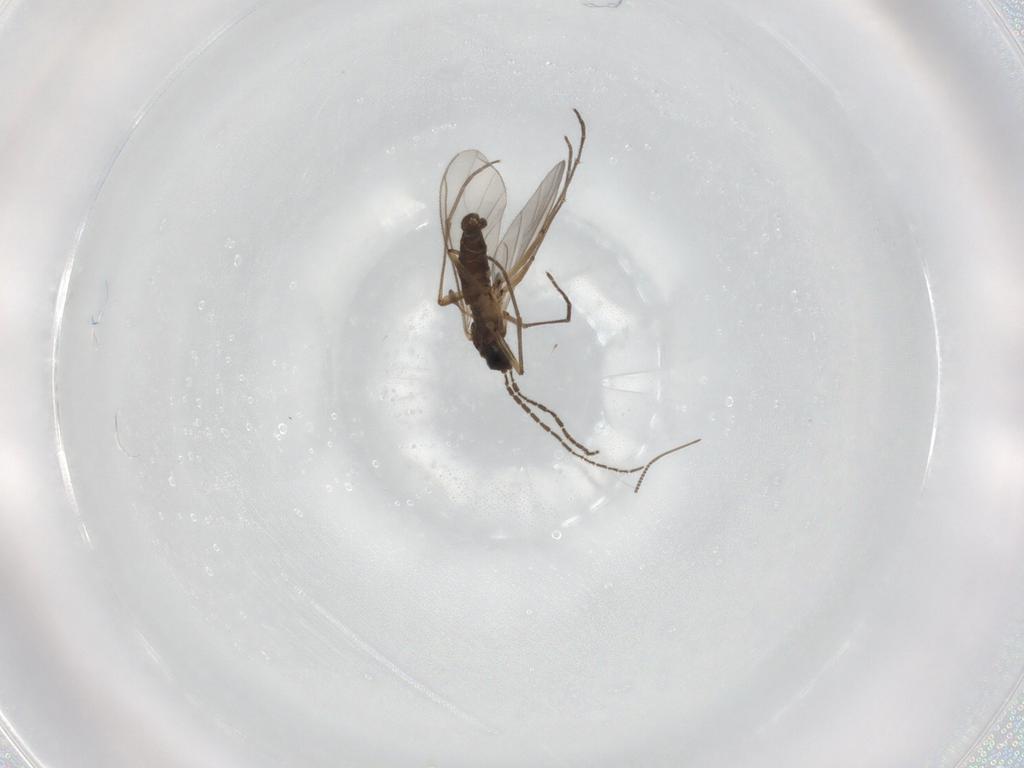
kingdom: Animalia
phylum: Arthropoda
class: Insecta
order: Diptera
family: Sciaridae
